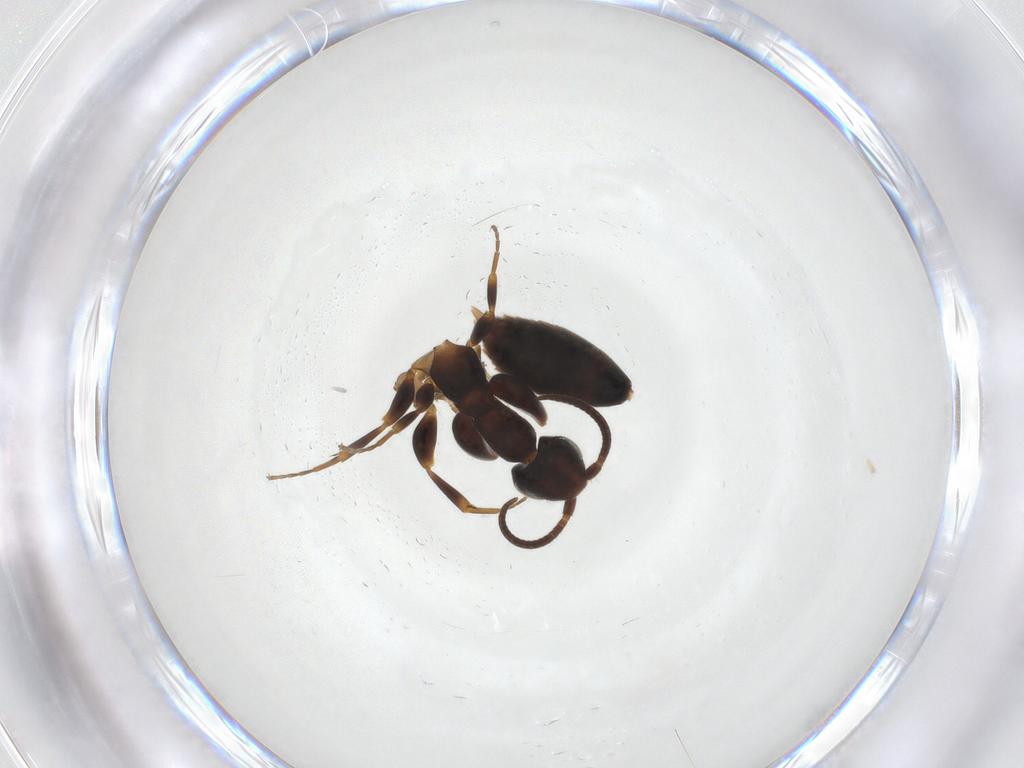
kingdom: Animalia
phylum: Arthropoda
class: Insecta
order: Hymenoptera
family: Sclerogibbidae
